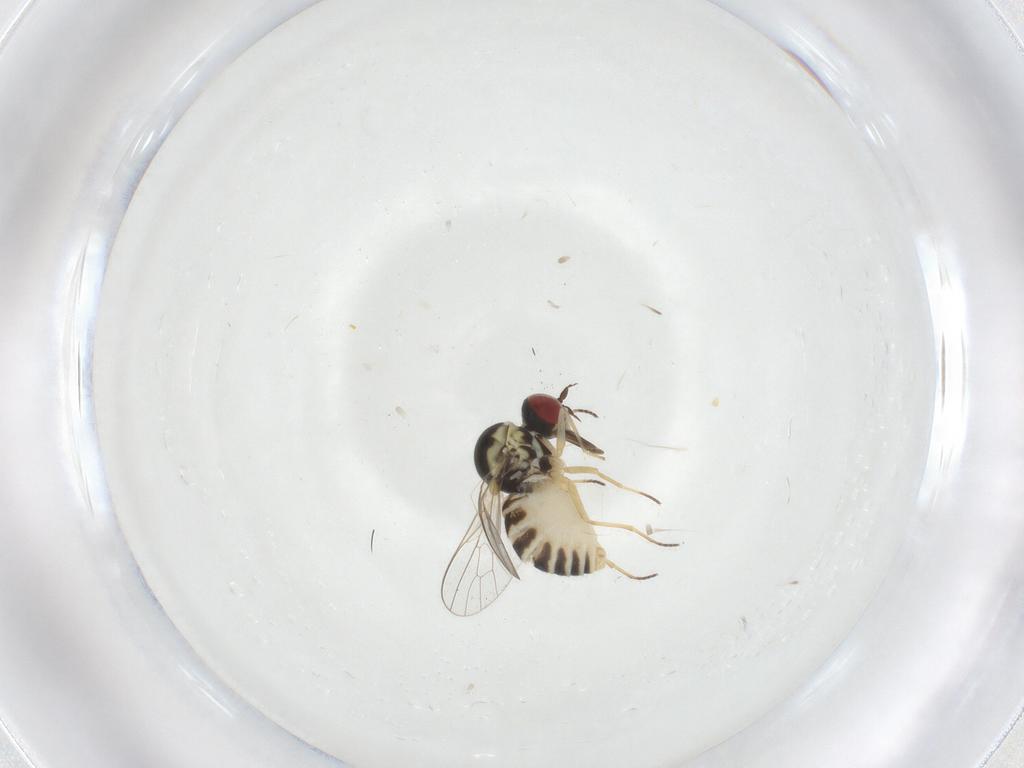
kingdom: Animalia
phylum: Arthropoda
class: Insecta
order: Diptera
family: Mythicomyiidae
